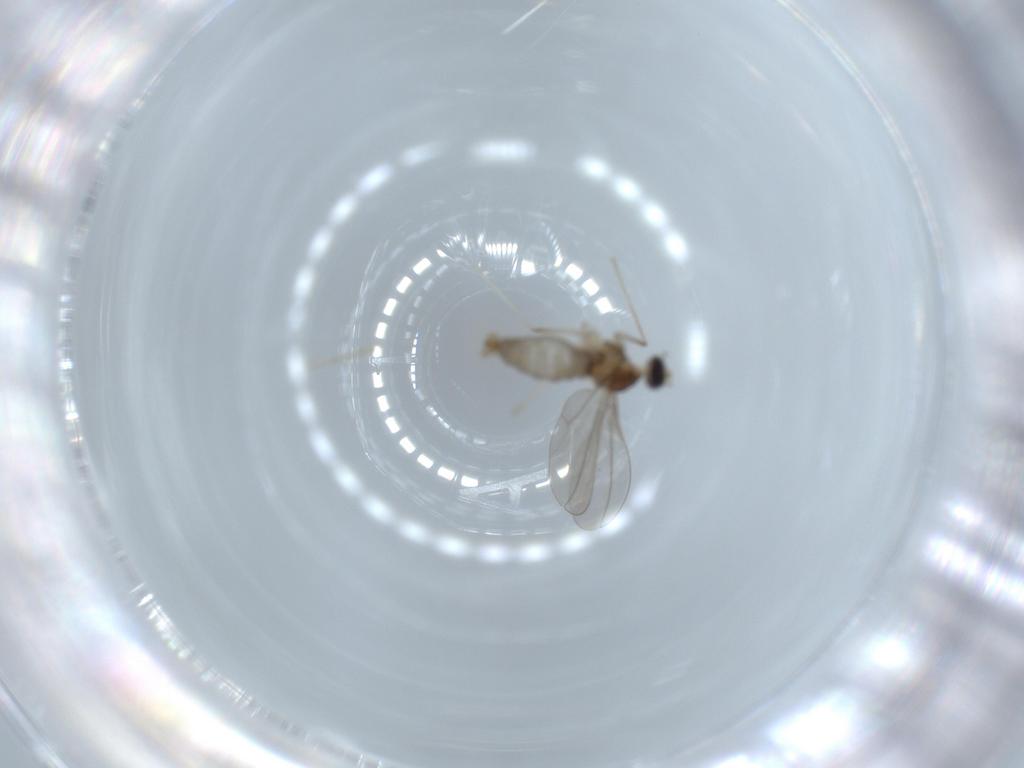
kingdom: Animalia
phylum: Arthropoda
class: Insecta
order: Diptera
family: Cecidomyiidae
